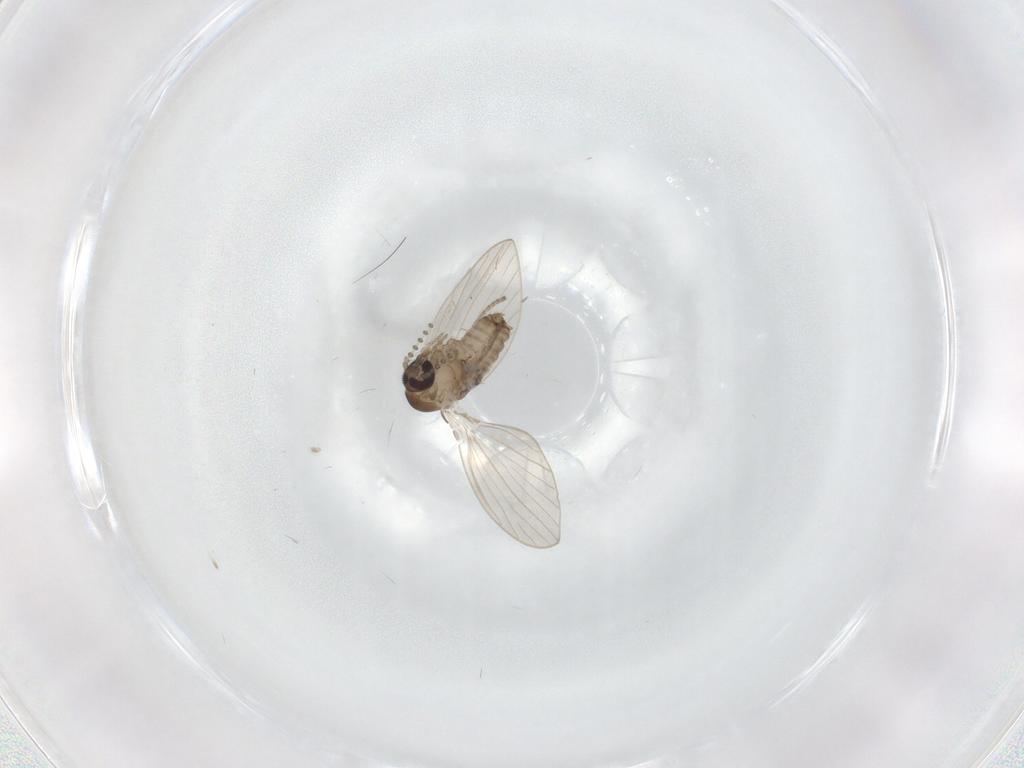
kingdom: Animalia
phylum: Arthropoda
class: Insecta
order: Diptera
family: Psychodidae
